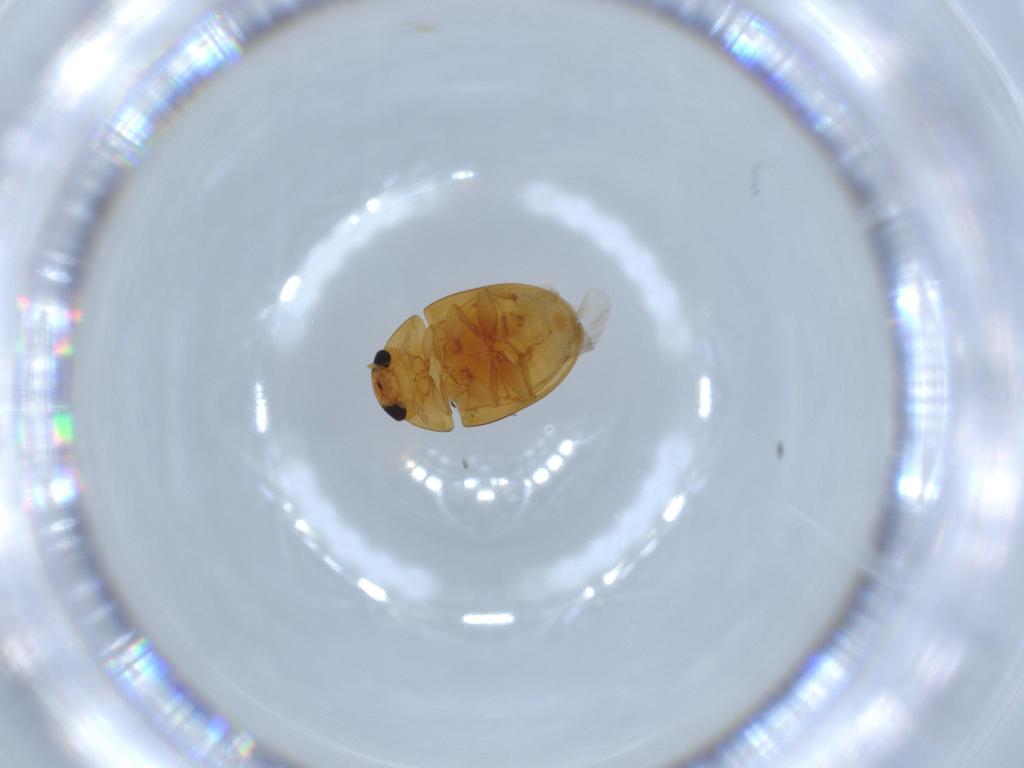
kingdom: Animalia
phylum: Arthropoda
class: Insecta
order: Coleoptera
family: Phalacridae
